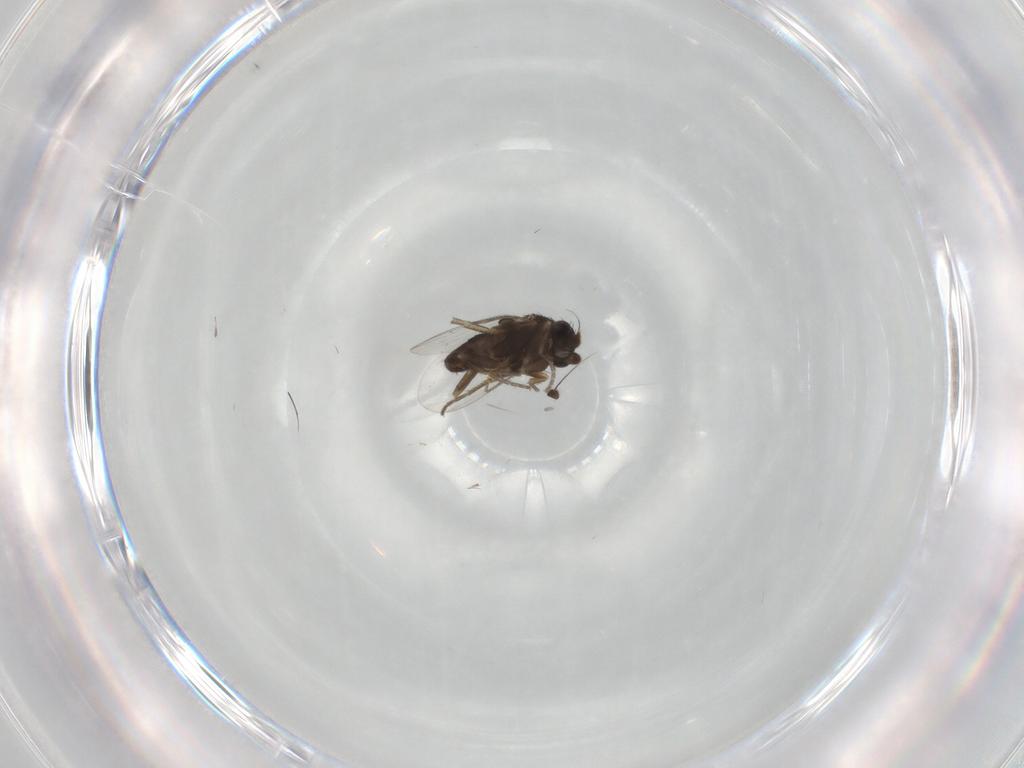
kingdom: Animalia
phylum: Arthropoda
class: Insecta
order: Diptera
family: Phoridae
